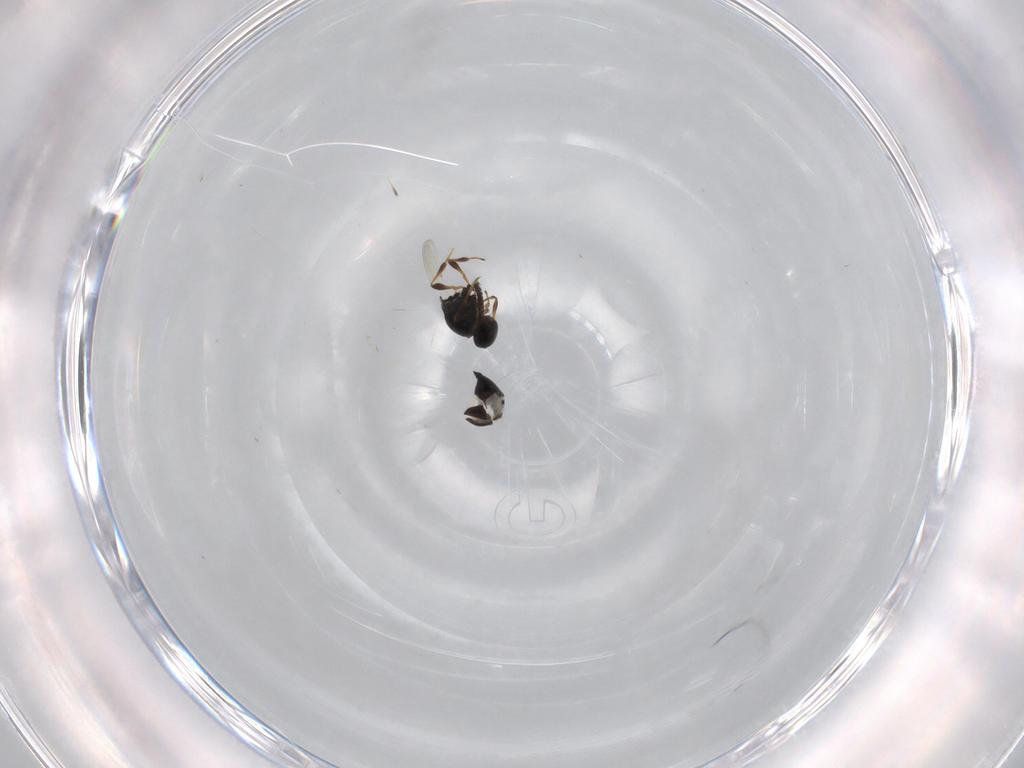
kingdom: Animalia
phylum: Arthropoda
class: Insecta
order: Hymenoptera
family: Platygastridae
